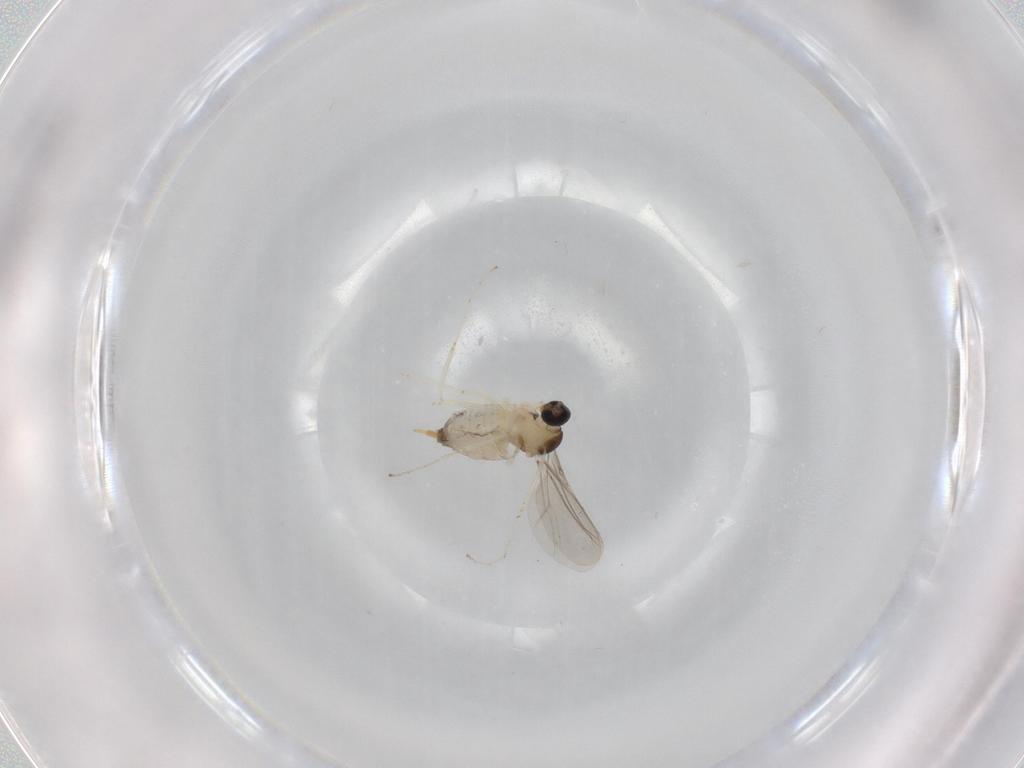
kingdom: Animalia
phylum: Arthropoda
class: Insecta
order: Diptera
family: Cecidomyiidae
